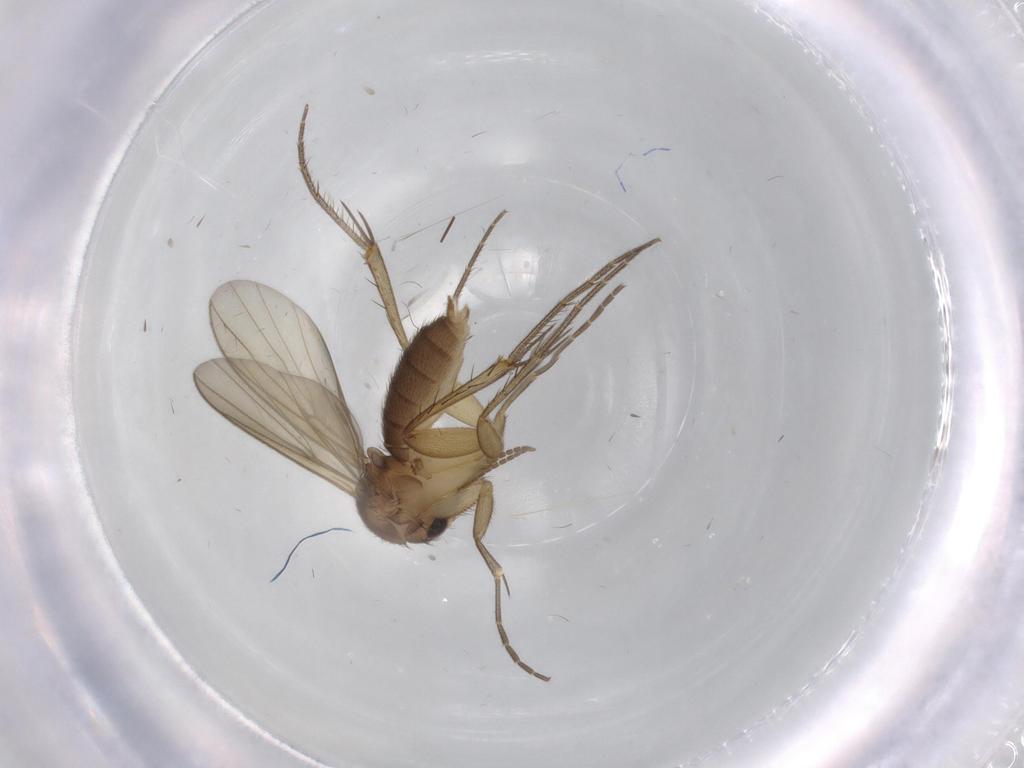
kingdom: Animalia
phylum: Arthropoda
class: Insecta
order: Diptera
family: Mycetophilidae
